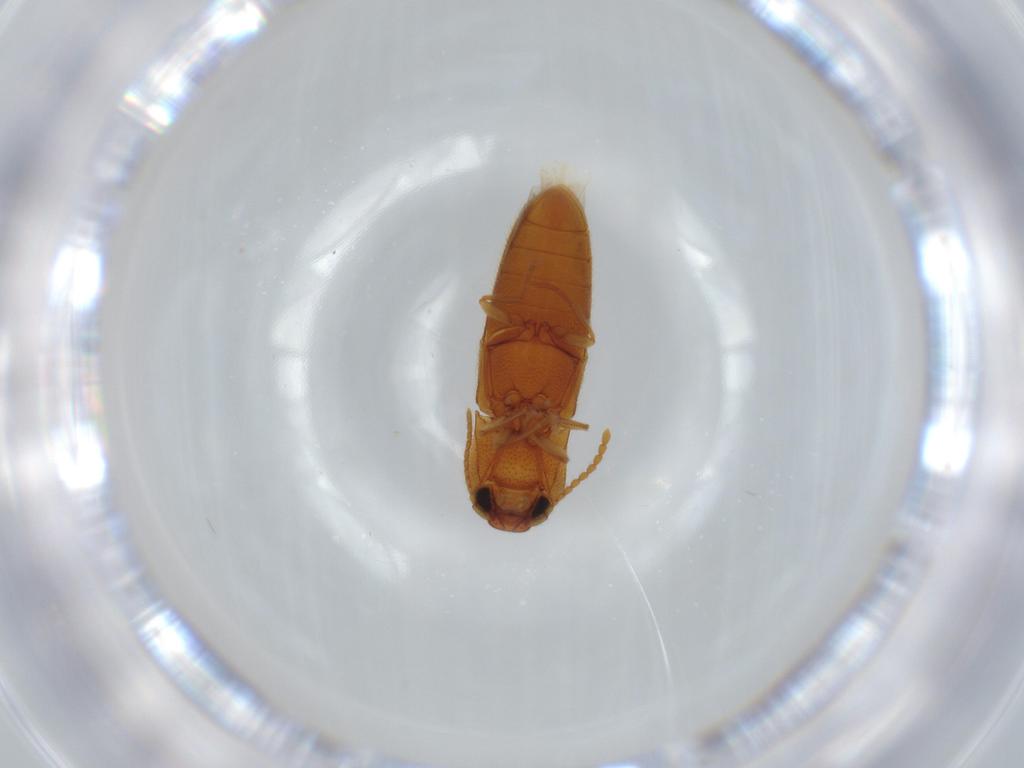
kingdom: Animalia
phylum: Arthropoda
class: Insecta
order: Coleoptera
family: Elateridae
